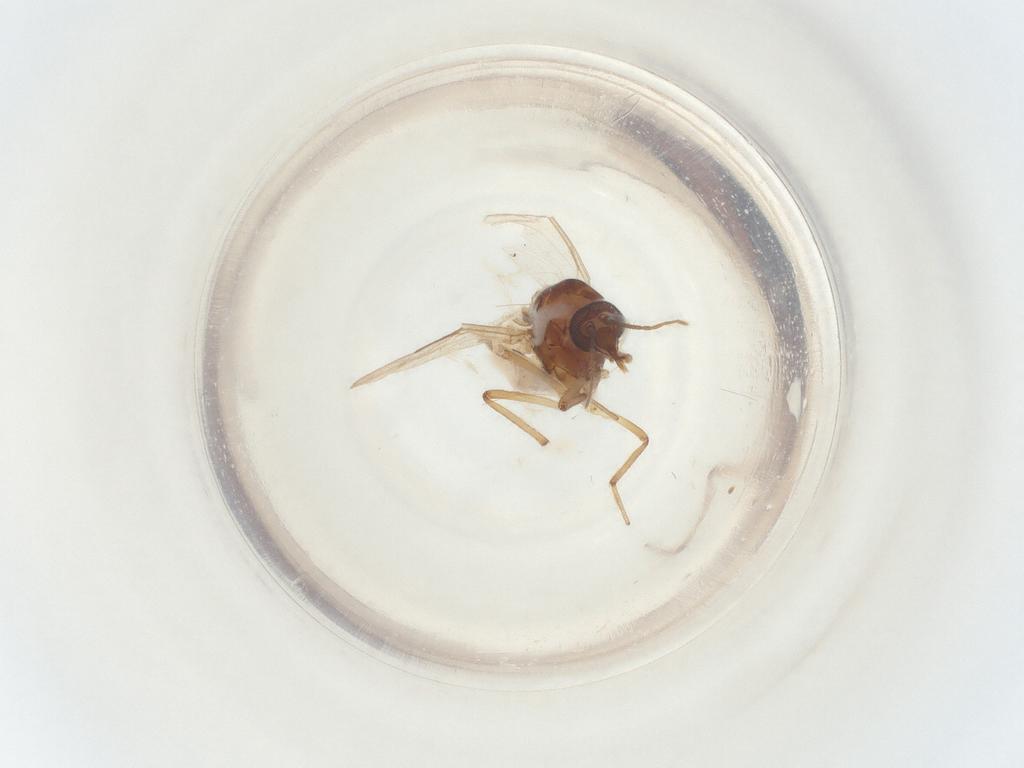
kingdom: Animalia
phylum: Arthropoda
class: Insecta
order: Diptera
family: Ceratopogonidae
